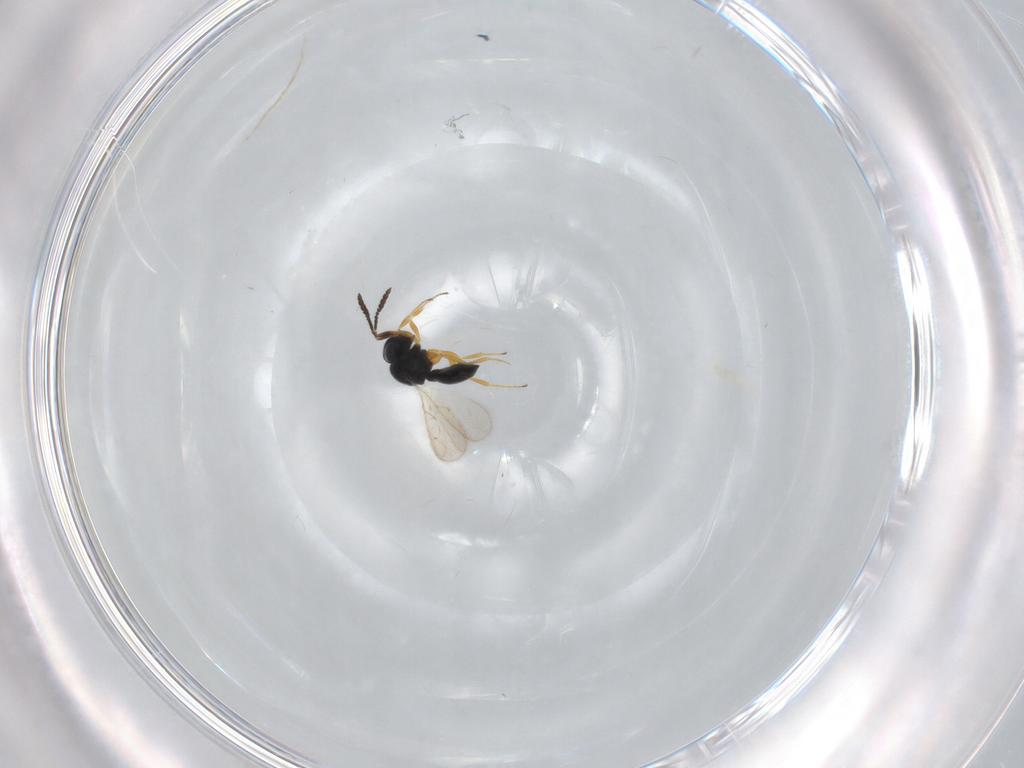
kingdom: Animalia
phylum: Arthropoda
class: Insecta
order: Hymenoptera
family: Scelionidae
